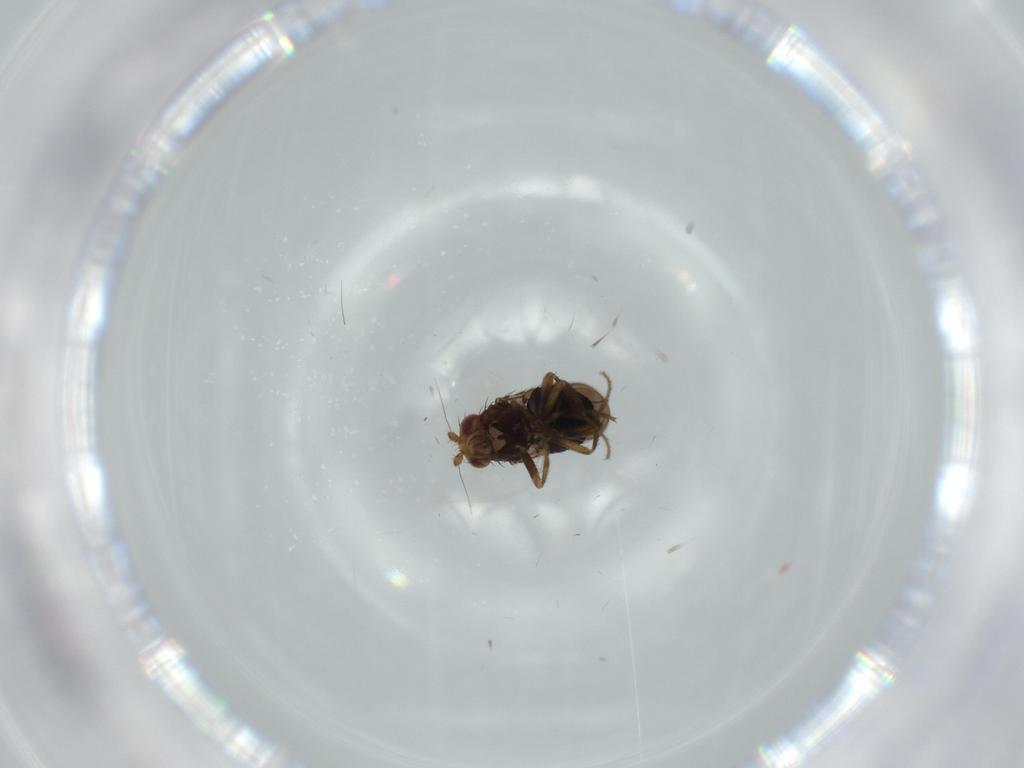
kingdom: Animalia
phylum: Arthropoda
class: Insecta
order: Diptera
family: Sphaeroceridae
